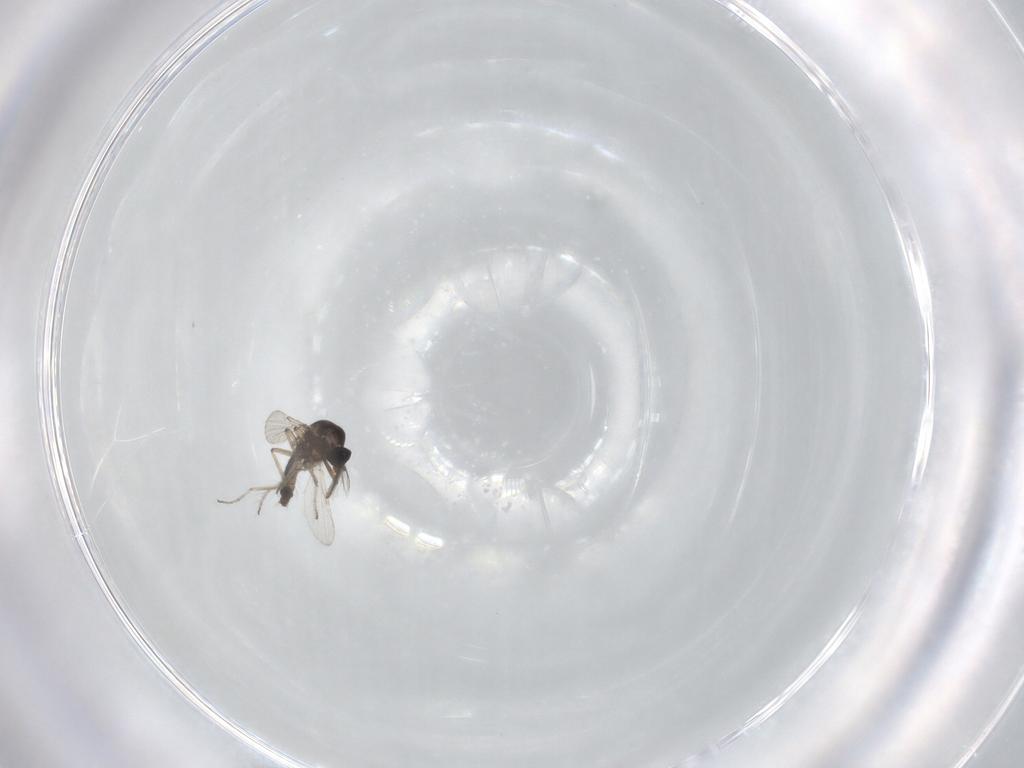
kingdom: Animalia
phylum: Arthropoda
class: Insecta
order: Diptera
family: Ceratopogonidae
